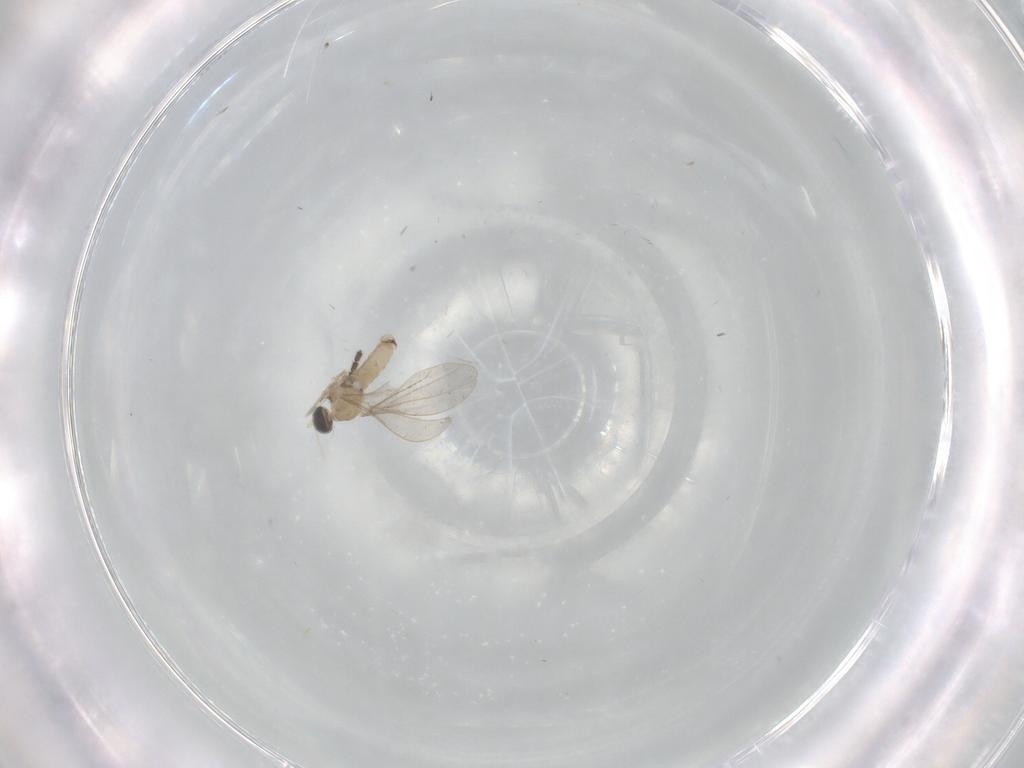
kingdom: Animalia
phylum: Arthropoda
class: Insecta
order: Diptera
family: Cecidomyiidae
